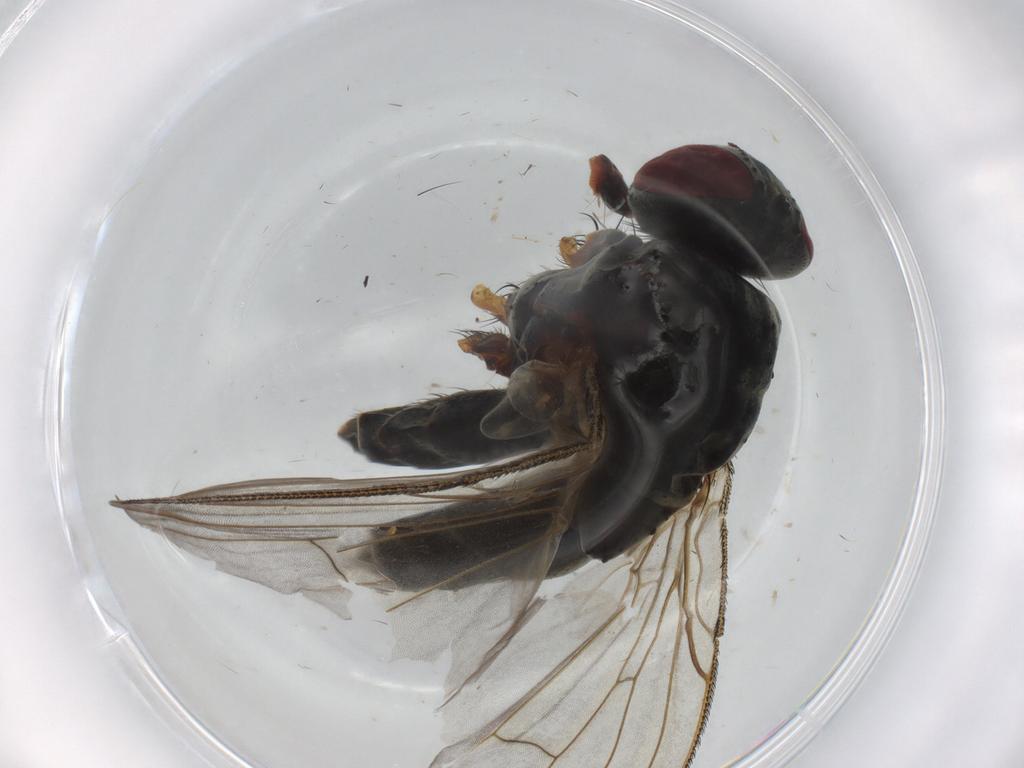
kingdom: Animalia
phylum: Arthropoda
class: Insecta
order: Diptera
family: Muscidae
